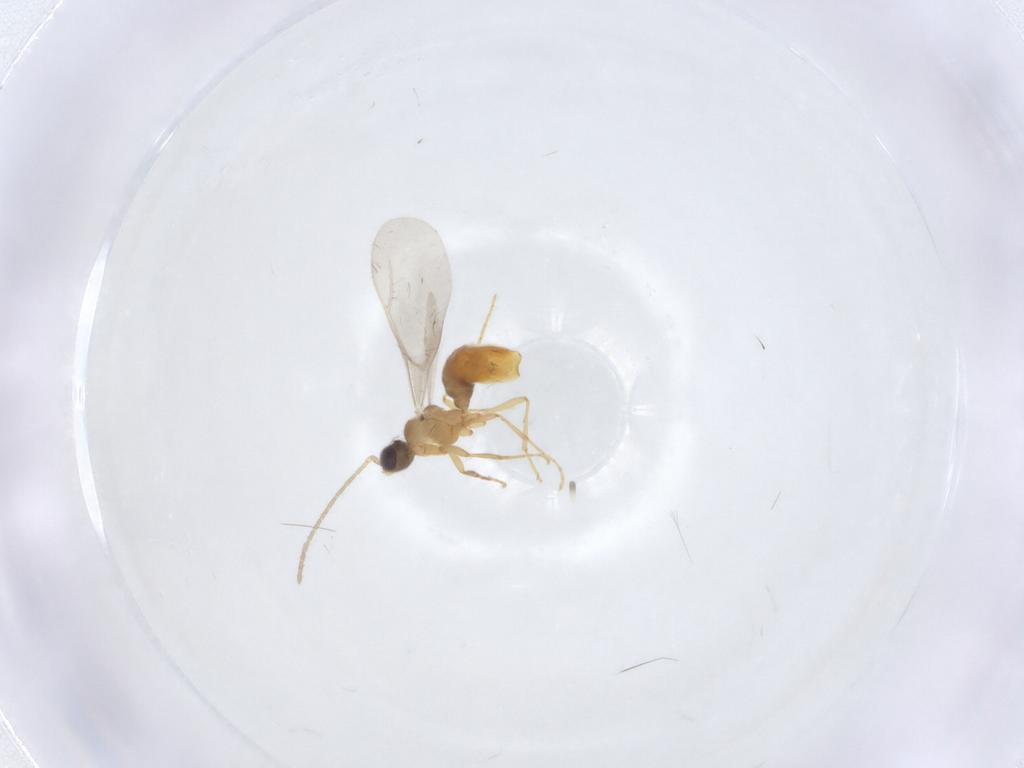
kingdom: Animalia
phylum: Arthropoda
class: Insecta
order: Hymenoptera
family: Formicidae
